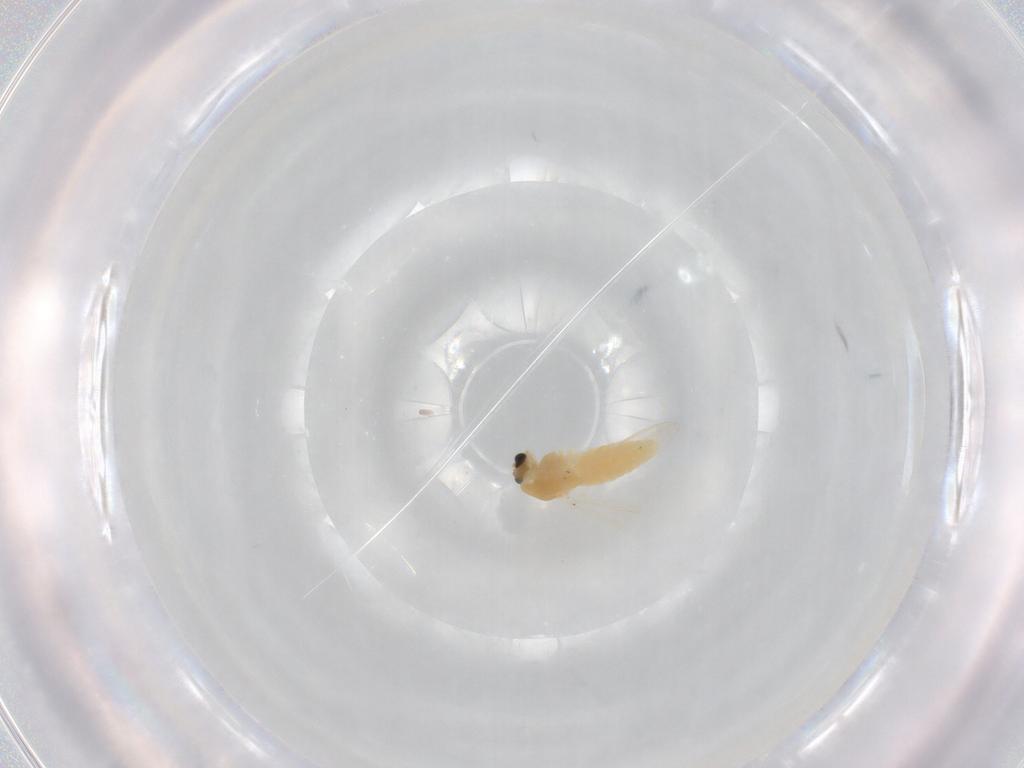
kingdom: Animalia
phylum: Arthropoda
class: Insecta
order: Diptera
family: Chironomidae
